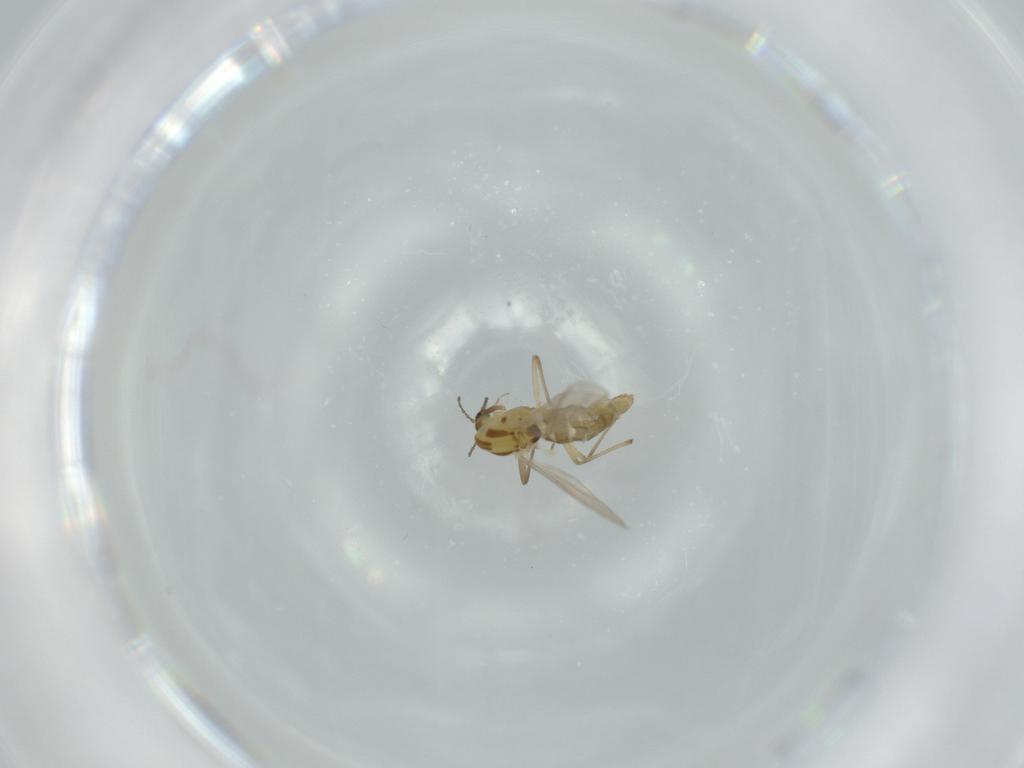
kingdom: Animalia
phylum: Arthropoda
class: Insecta
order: Diptera
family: Chironomidae
